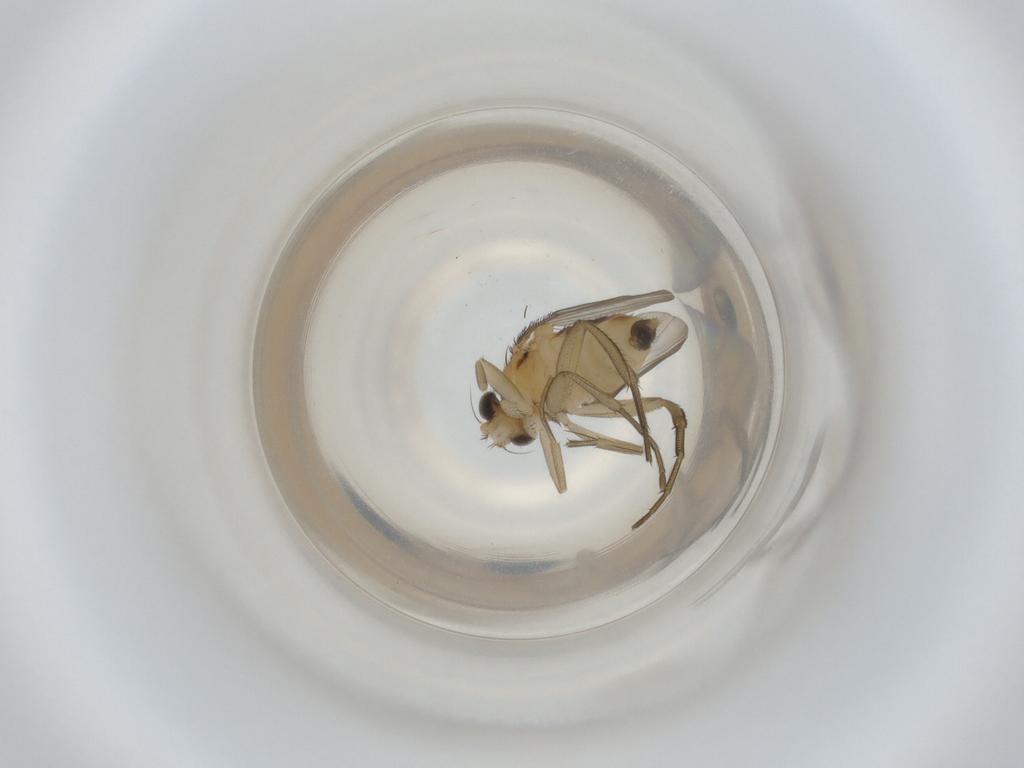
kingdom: Animalia
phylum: Arthropoda
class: Insecta
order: Diptera
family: Phoridae
